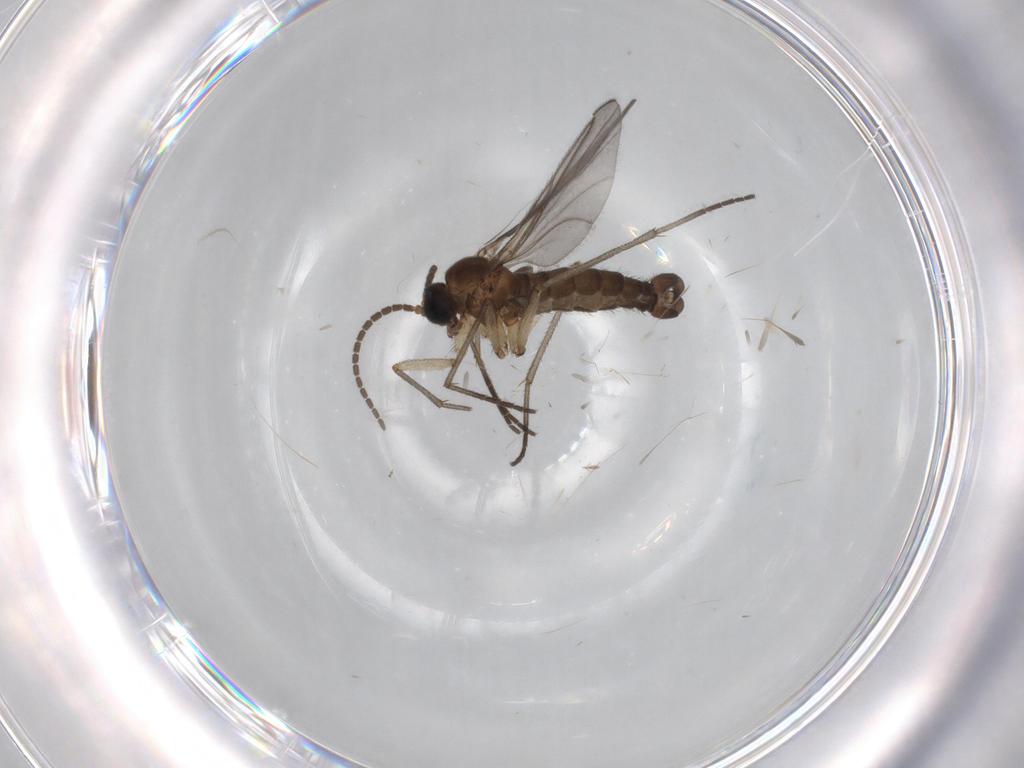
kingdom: Animalia
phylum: Arthropoda
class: Insecta
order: Diptera
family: Sciaridae
